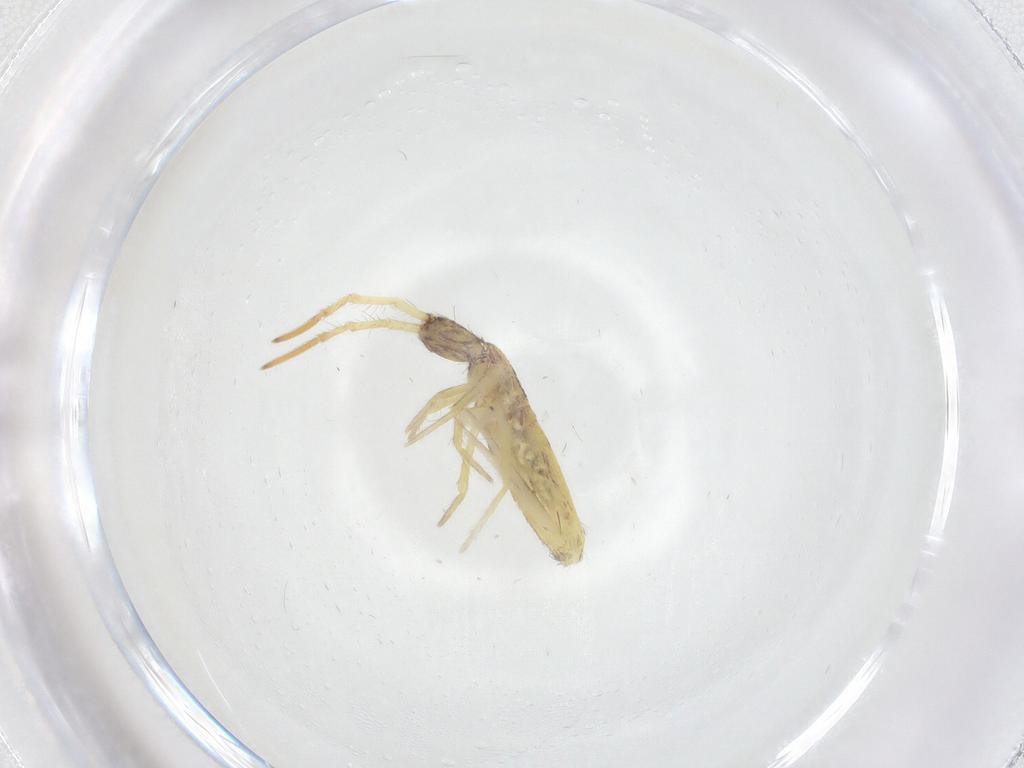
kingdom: Animalia
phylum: Arthropoda
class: Collembola
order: Entomobryomorpha
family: Entomobryidae
